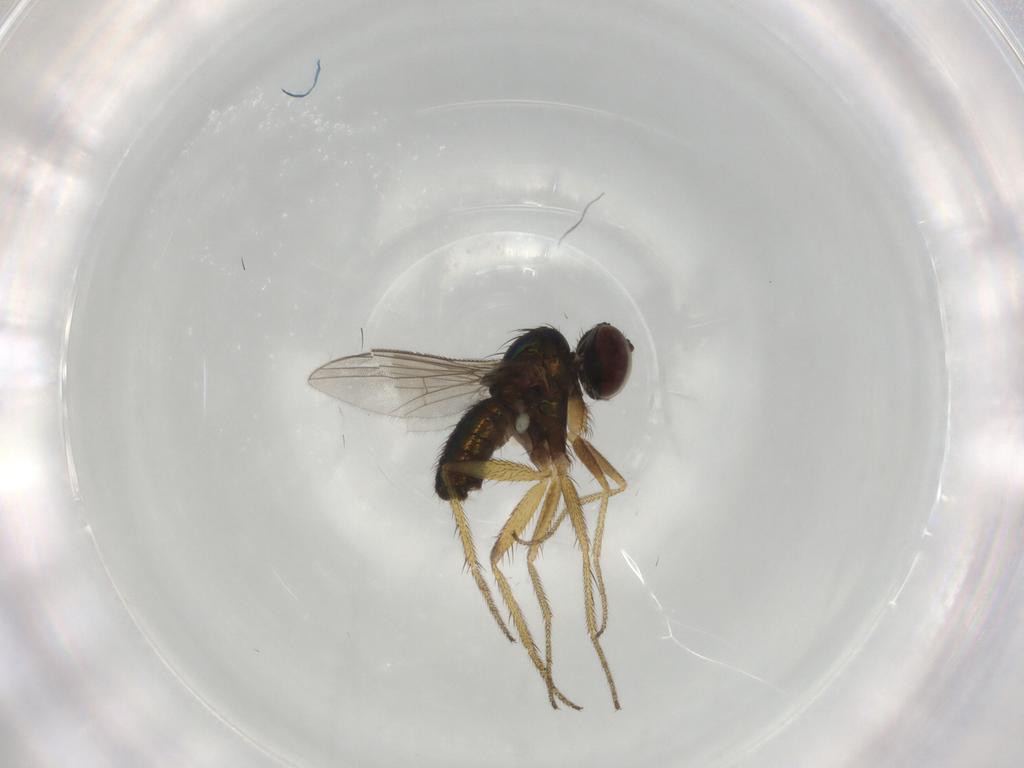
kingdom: Animalia
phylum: Arthropoda
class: Insecta
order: Diptera
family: Dolichopodidae
